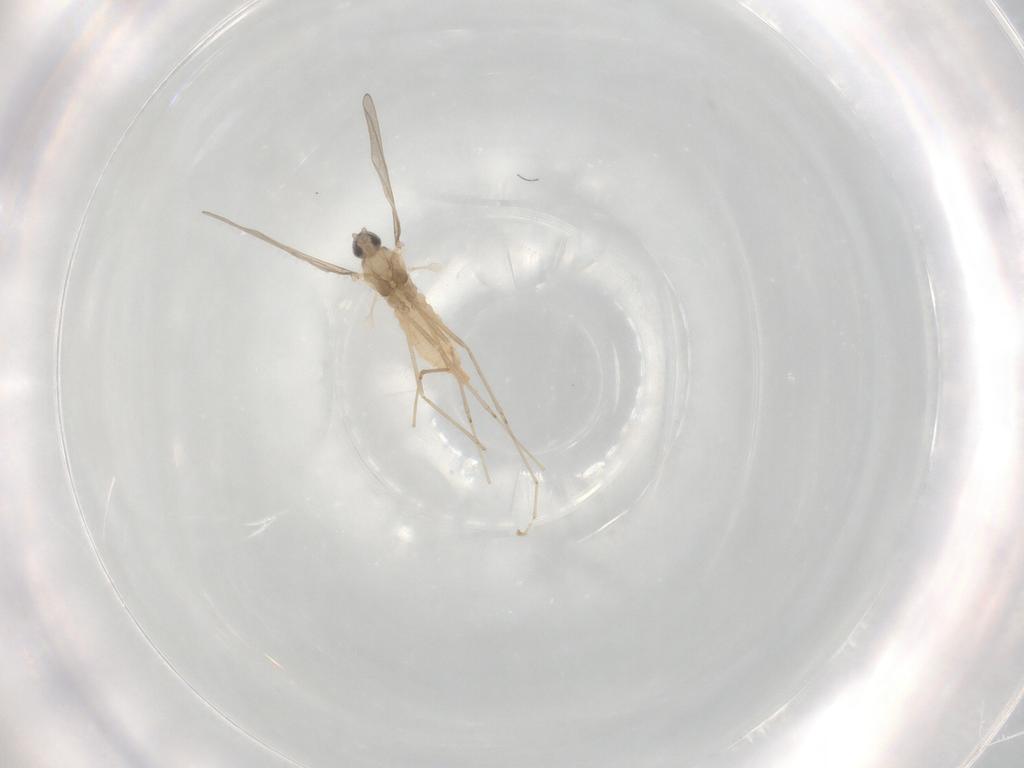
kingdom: Animalia
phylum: Arthropoda
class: Insecta
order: Diptera
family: Cecidomyiidae
